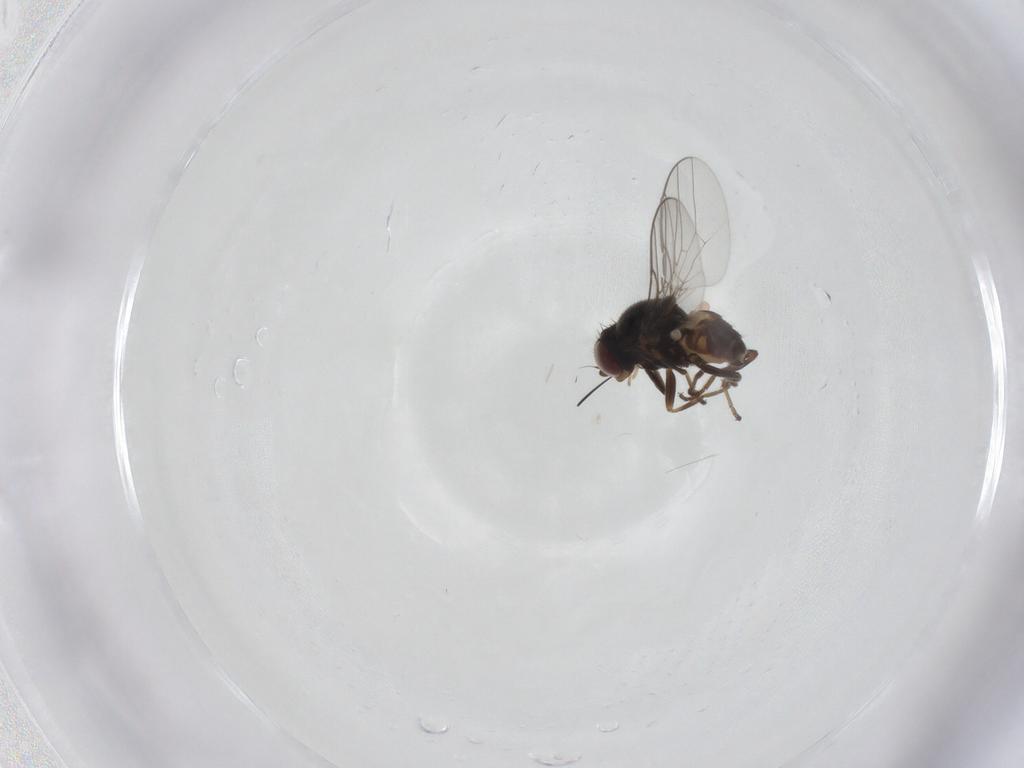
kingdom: Animalia
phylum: Arthropoda
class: Insecta
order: Diptera
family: Chloropidae
